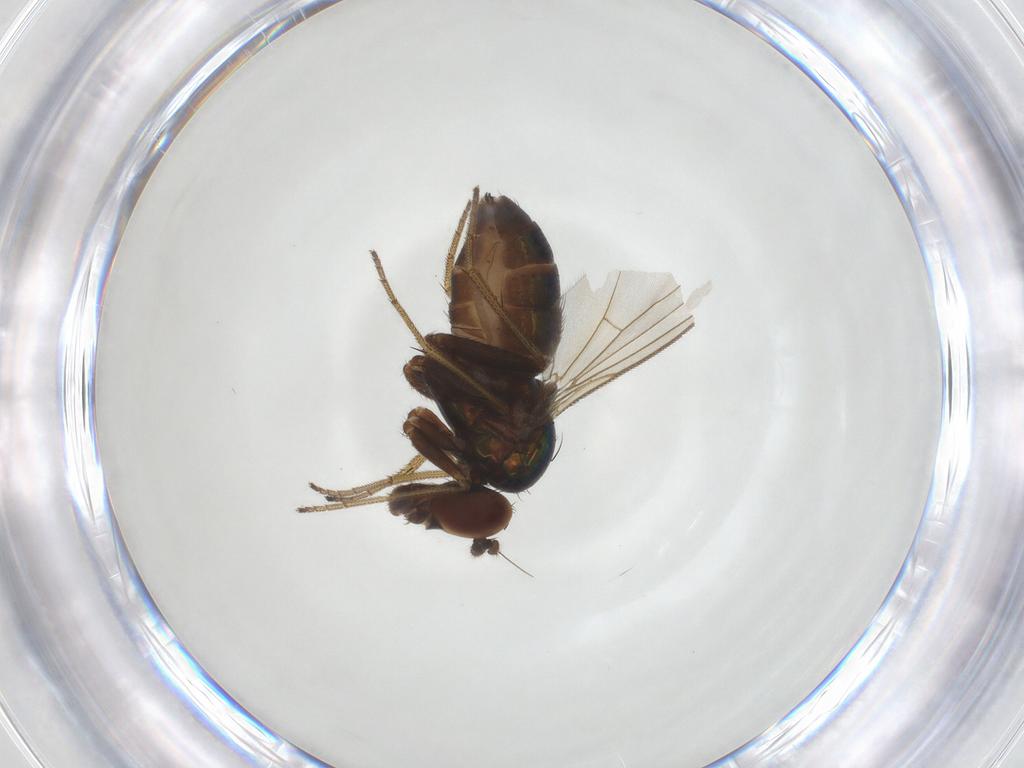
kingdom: Animalia
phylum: Arthropoda
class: Insecta
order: Diptera
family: Dolichopodidae
